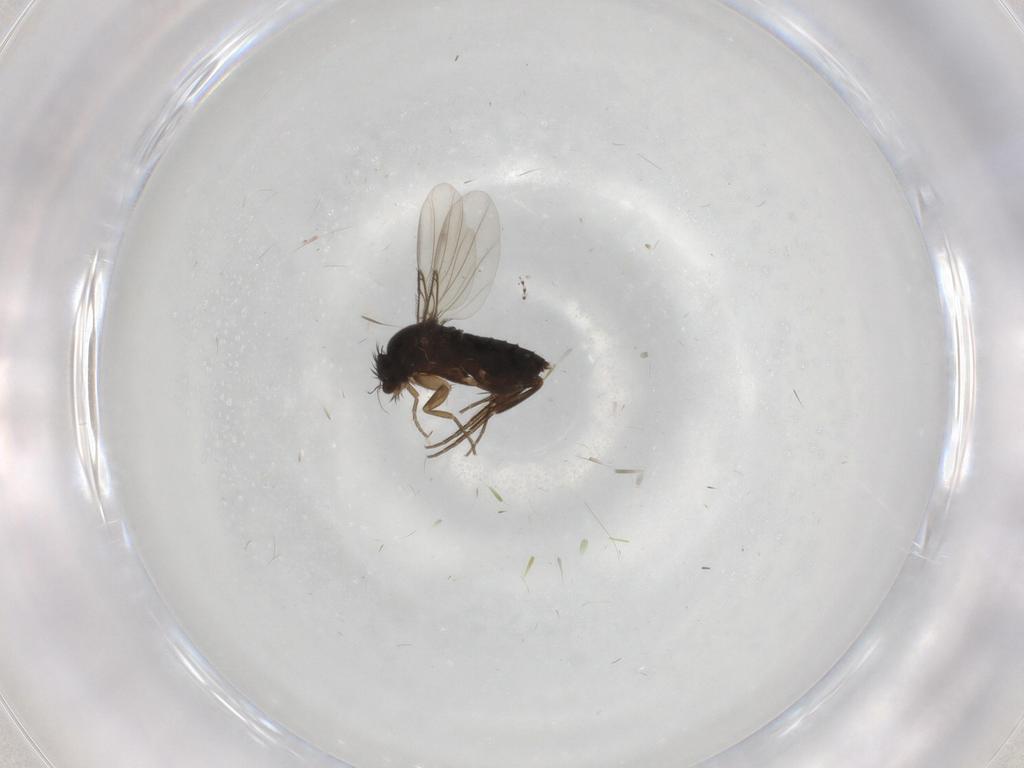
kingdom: Animalia
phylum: Arthropoda
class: Insecta
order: Diptera
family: Phoridae
